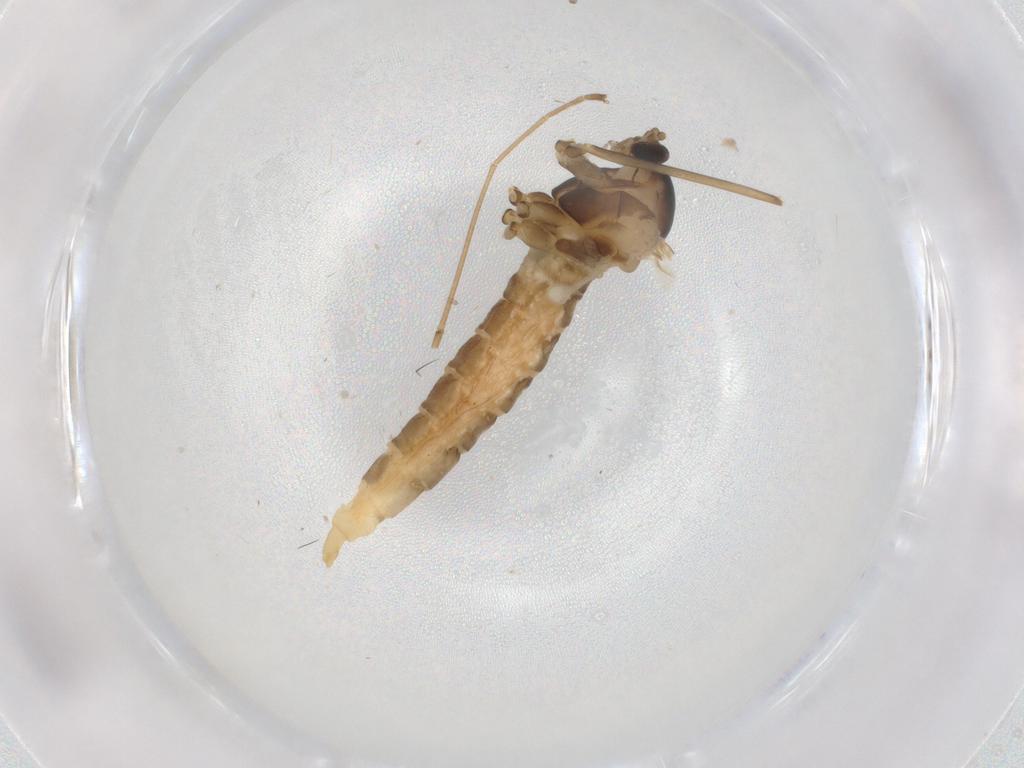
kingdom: Animalia
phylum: Arthropoda
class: Insecta
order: Diptera
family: Cecidomyiidae
